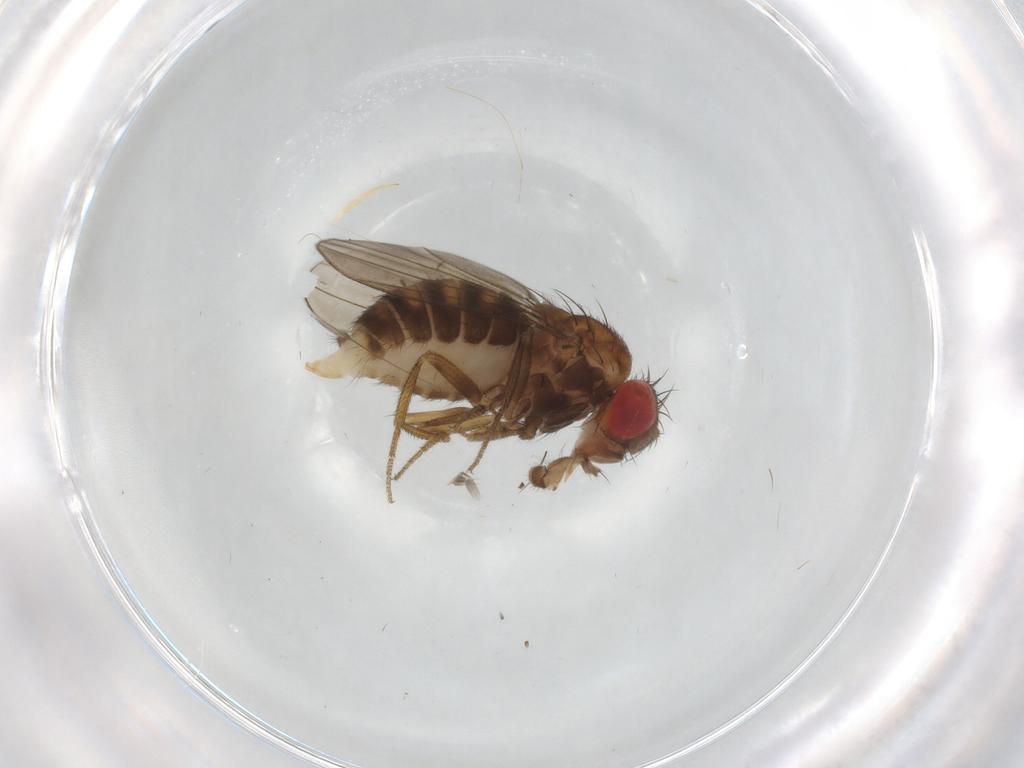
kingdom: Animalia
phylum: Arthropoda
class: Insecta
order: Diptera
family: Drosophilidae
